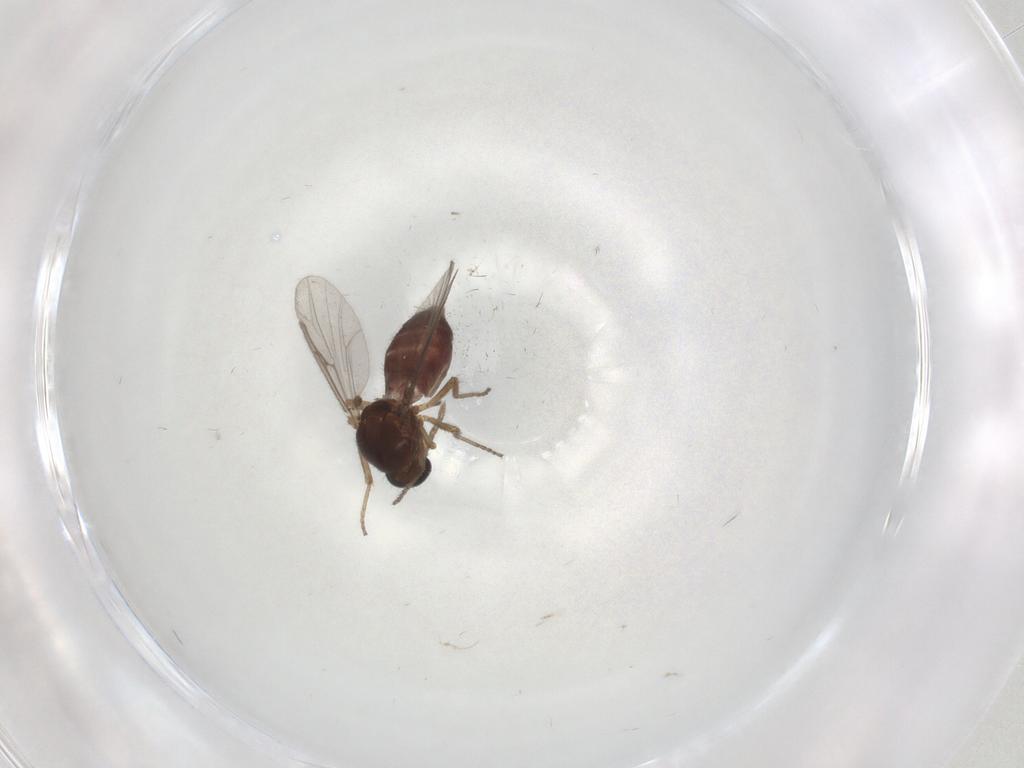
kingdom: Animalia
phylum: Arthropoda
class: Insecta
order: Diptera
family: Ceratopogonidae
